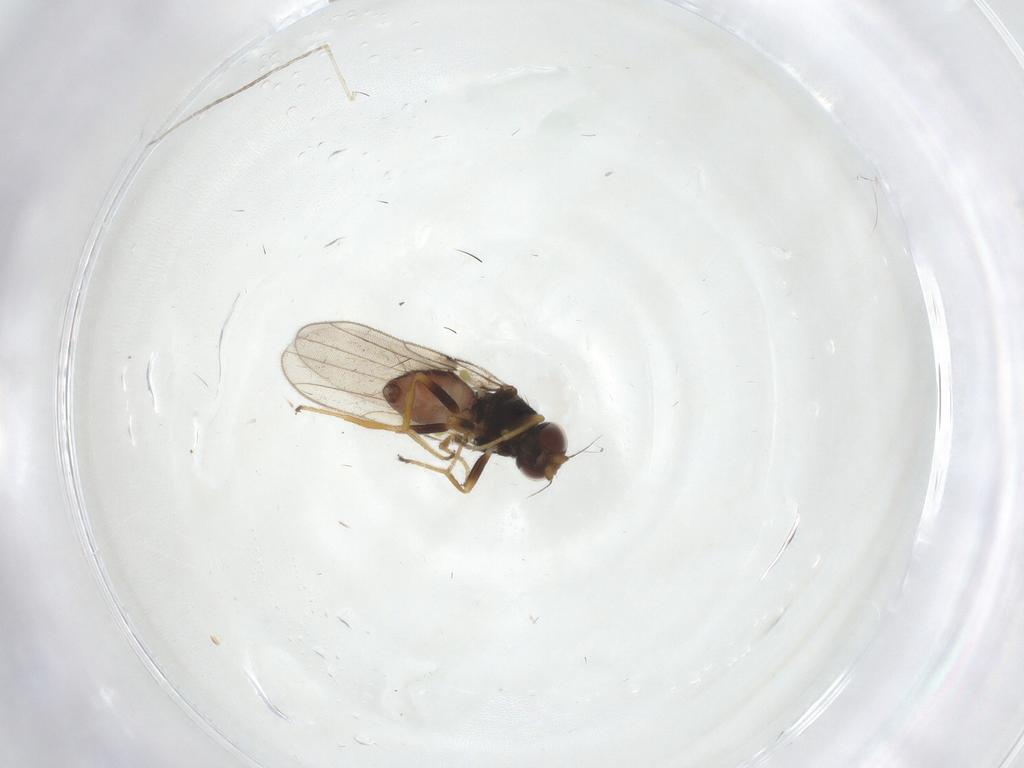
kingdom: Animalia
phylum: Arthropoda
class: Insecta
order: Diptera
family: Chloropidae
